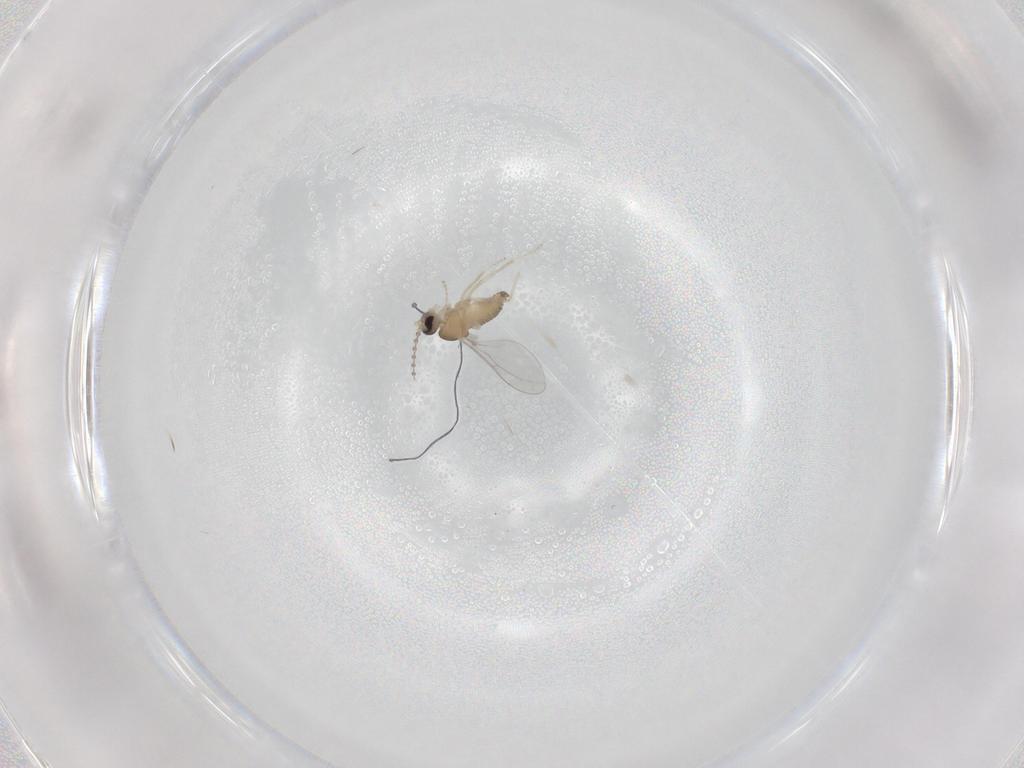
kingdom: Animalia
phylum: Arthropoda
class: Insecta
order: Diptera
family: Cecidomyiidae
